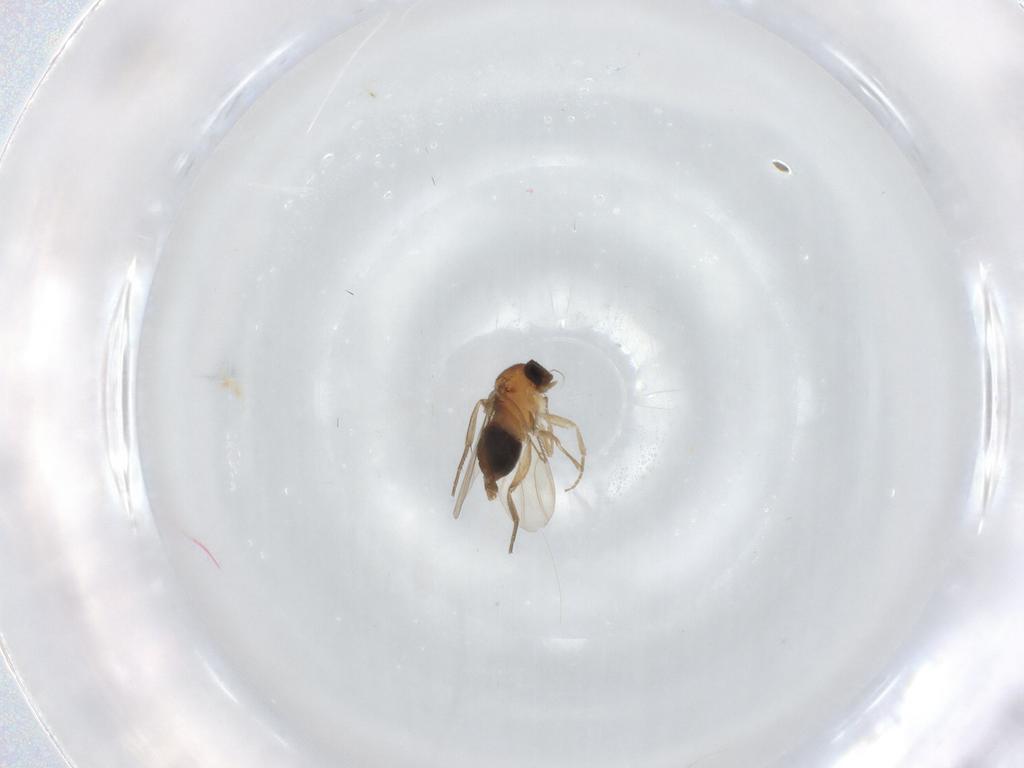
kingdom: Animalia
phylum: Arthropoda
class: Insecta
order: Diptera
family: Phoridae
